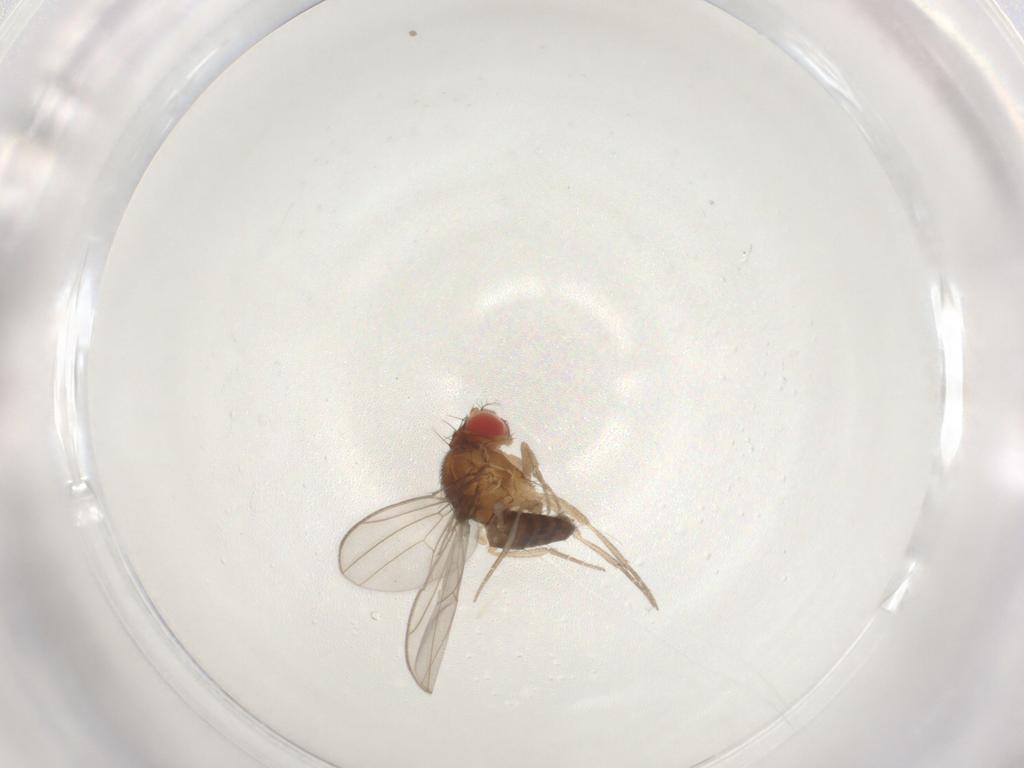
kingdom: Animalia
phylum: Arthropoda
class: Insecta
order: Diptera
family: Drosophilidae
